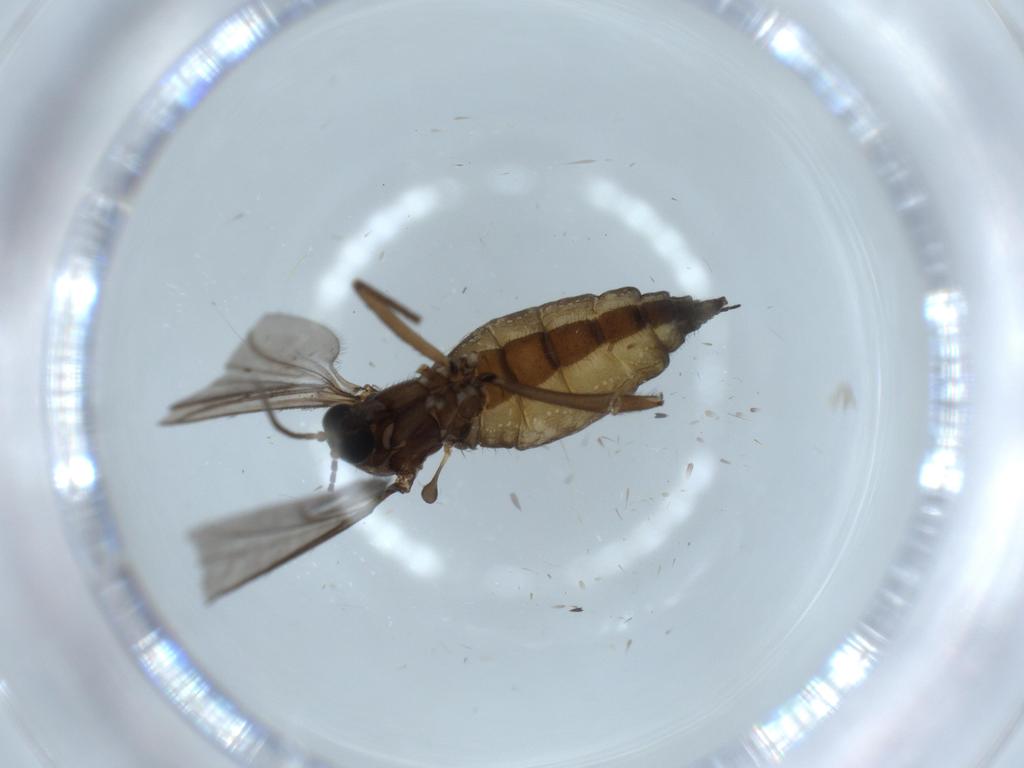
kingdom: Animalia
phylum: Arthropoda
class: Insecta
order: Diptera
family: Sciaridae
